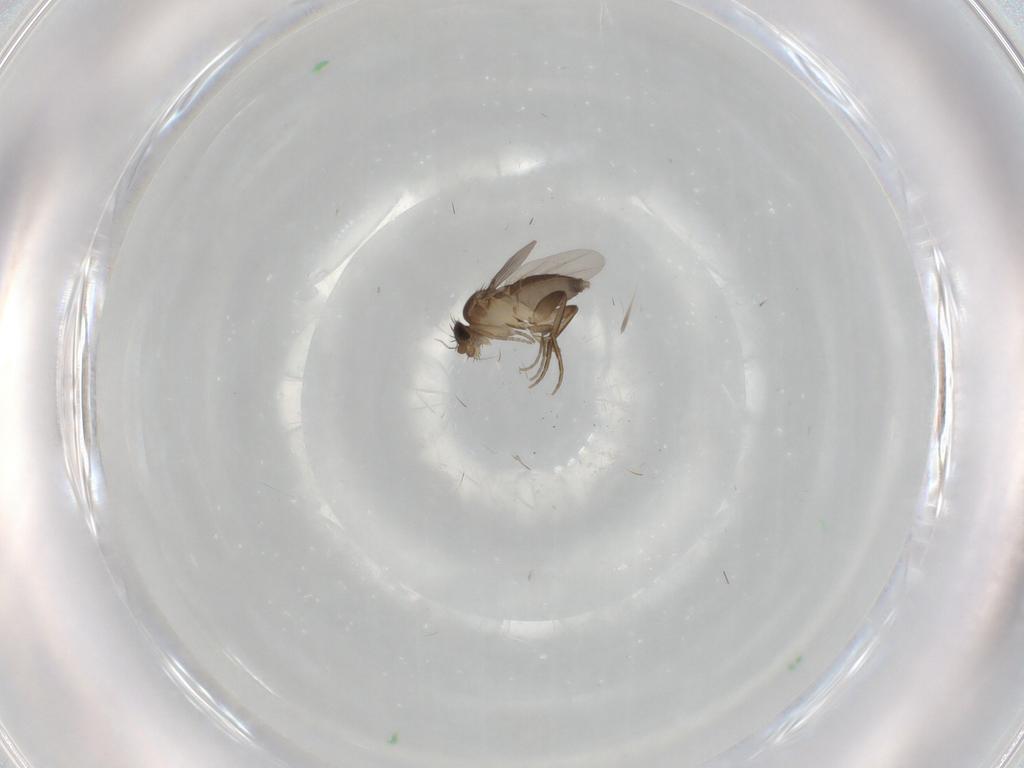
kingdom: Animalia
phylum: Arthropoda
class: Insecta
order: Diptera
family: Phoridae
